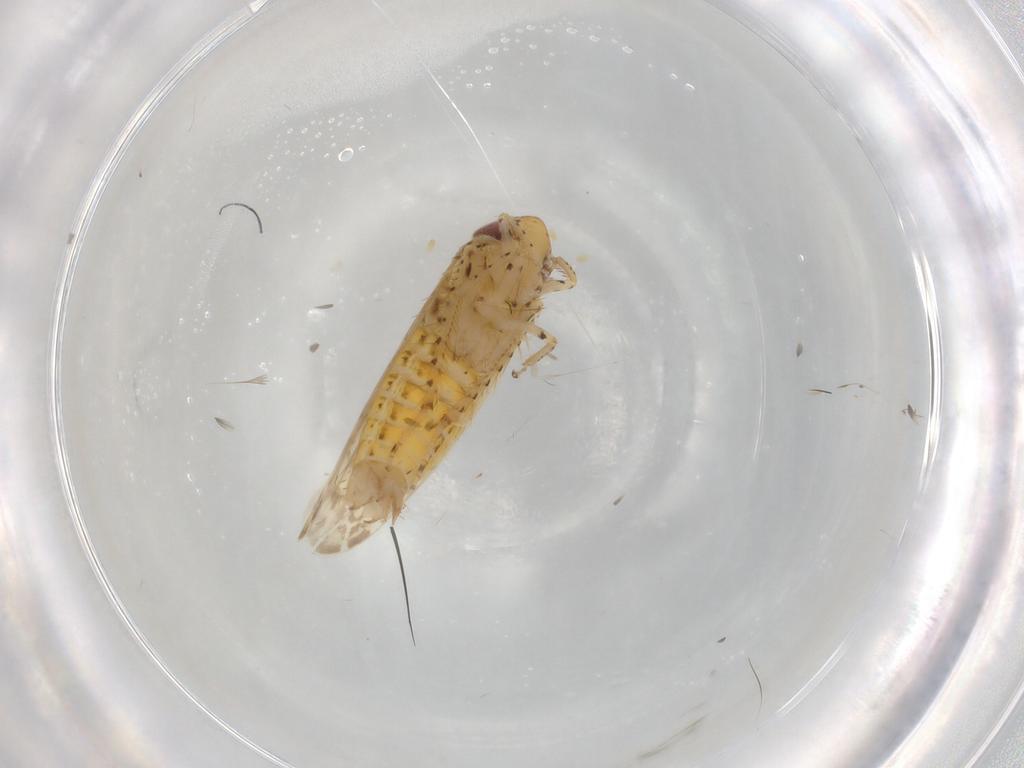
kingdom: Animalia
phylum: Arthropoda
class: Insecta
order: Hemiptera
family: Cicadellidae
